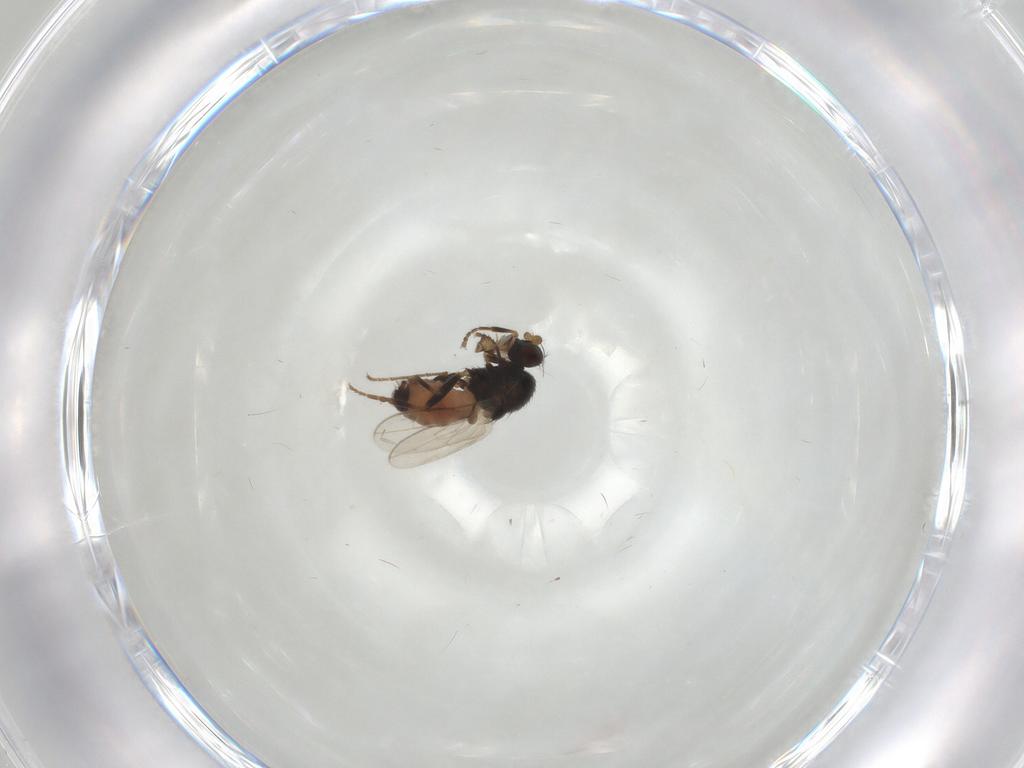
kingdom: Animalia
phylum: Arthropoda
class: Insecta
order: Diptera
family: Sphaeroceridae
